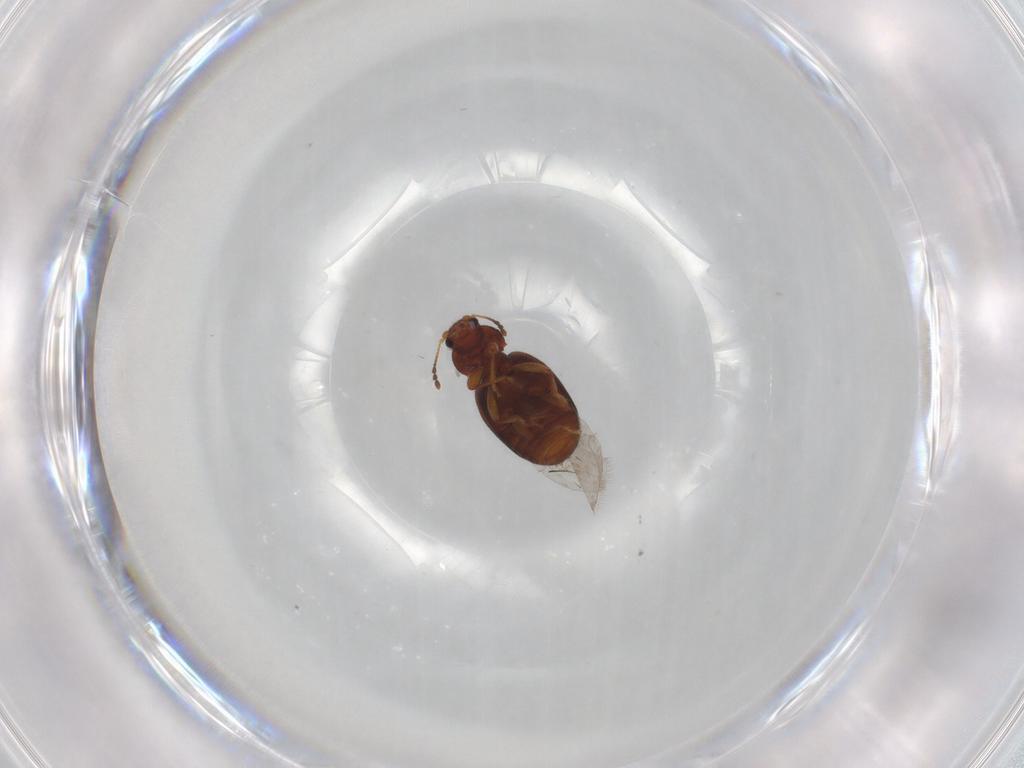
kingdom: Animalia
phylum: Arthropoda
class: Insecta
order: Coleoptera
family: Latridiidae
